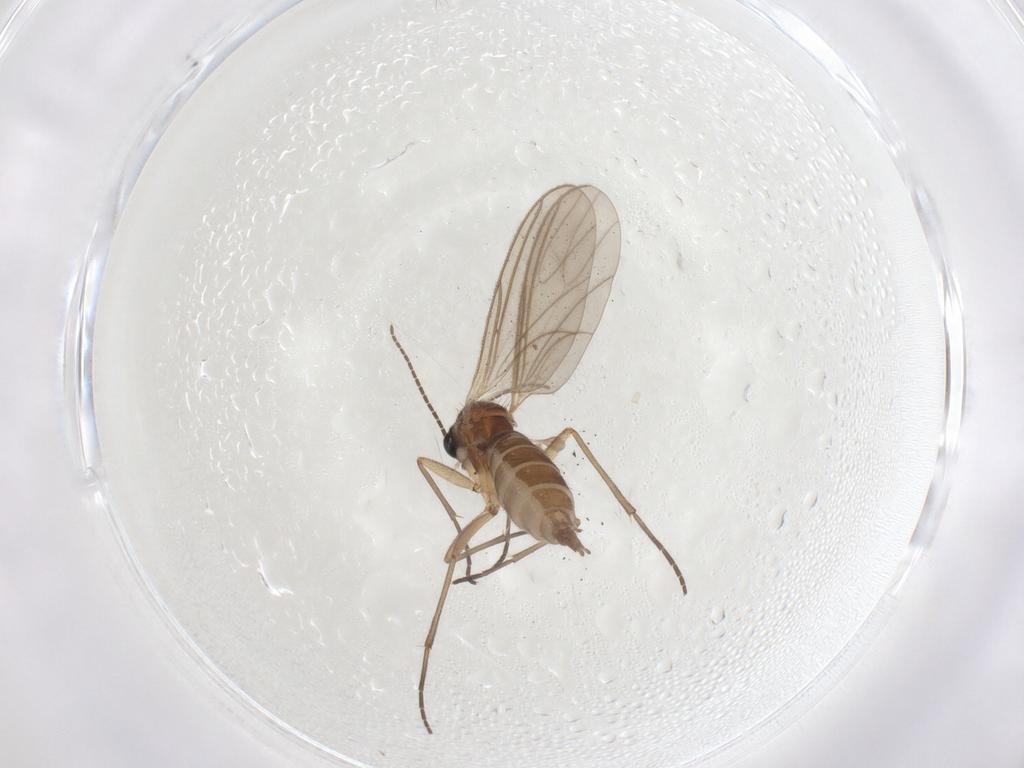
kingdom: Animalia
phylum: Arthropoda
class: Insecta
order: Diptera
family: Sciaridae
